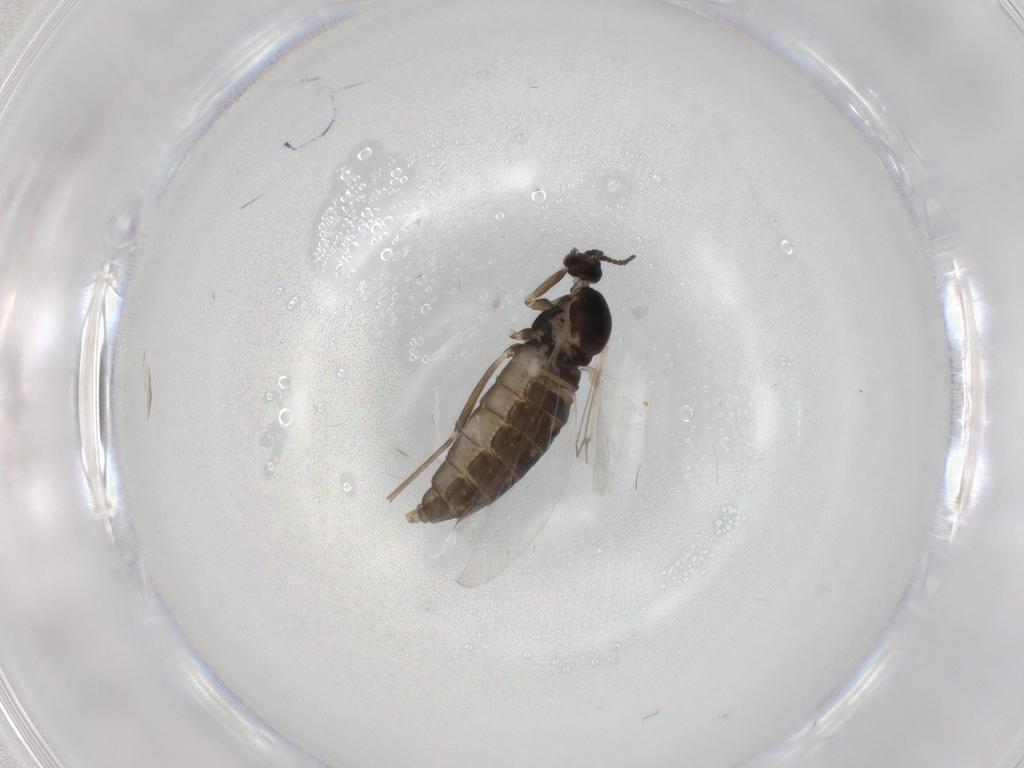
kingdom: Animalia
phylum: Arthropoda
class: Insecta
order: Diptera
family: Cecidomyiidae
